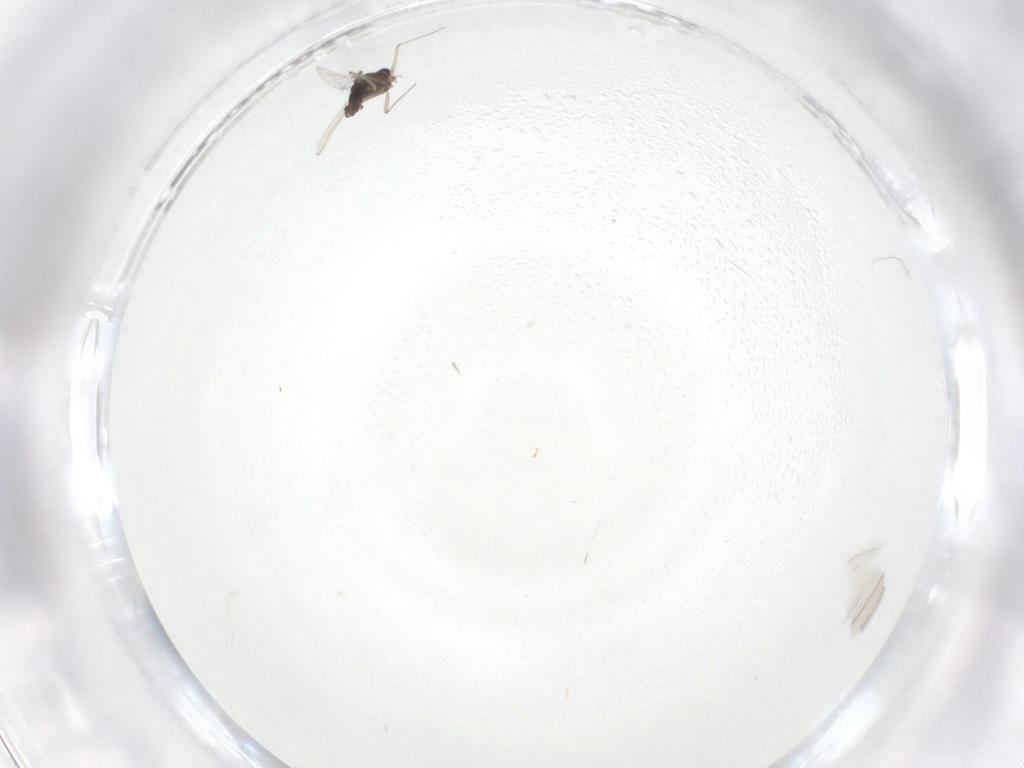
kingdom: Animalia
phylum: Arthropoda
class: Insecta
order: Diptera
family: Chironomidae
